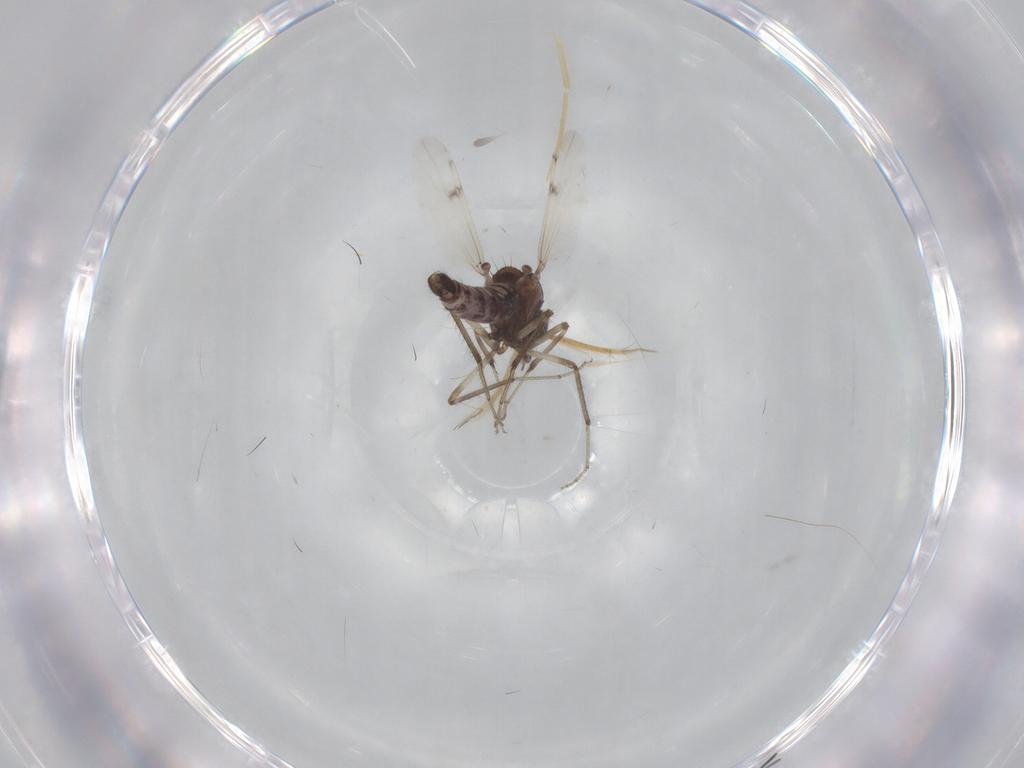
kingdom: Animalia
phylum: Arthropoda
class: Insecta
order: Diptera
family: Chironomidae
